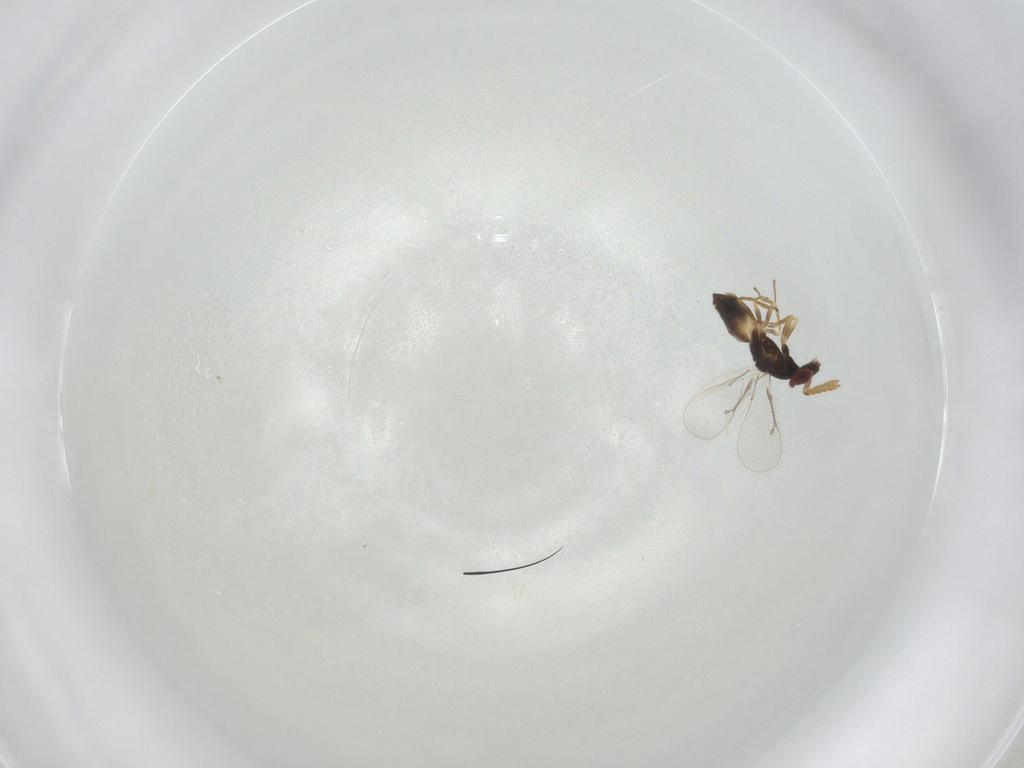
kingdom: Animalia
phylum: Arthropoda
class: Insecta
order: Hymenoptera
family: Eulophidae
